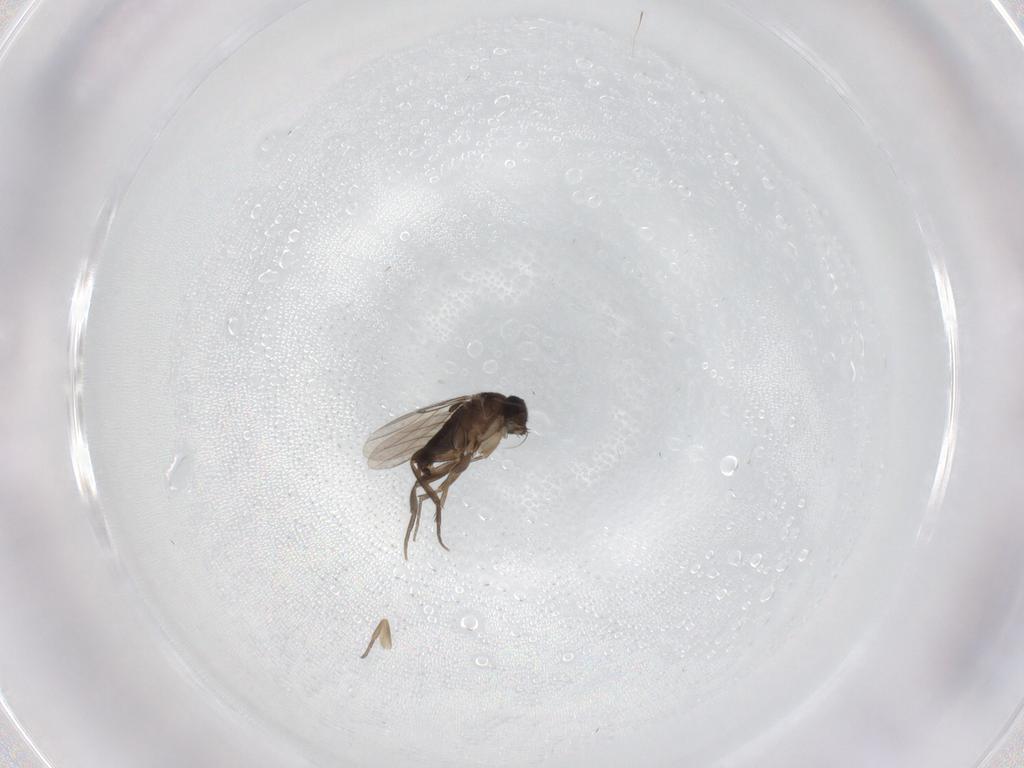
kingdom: Animalia
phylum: Arthropoda
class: Insecta
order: Diptera
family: Phoridae
